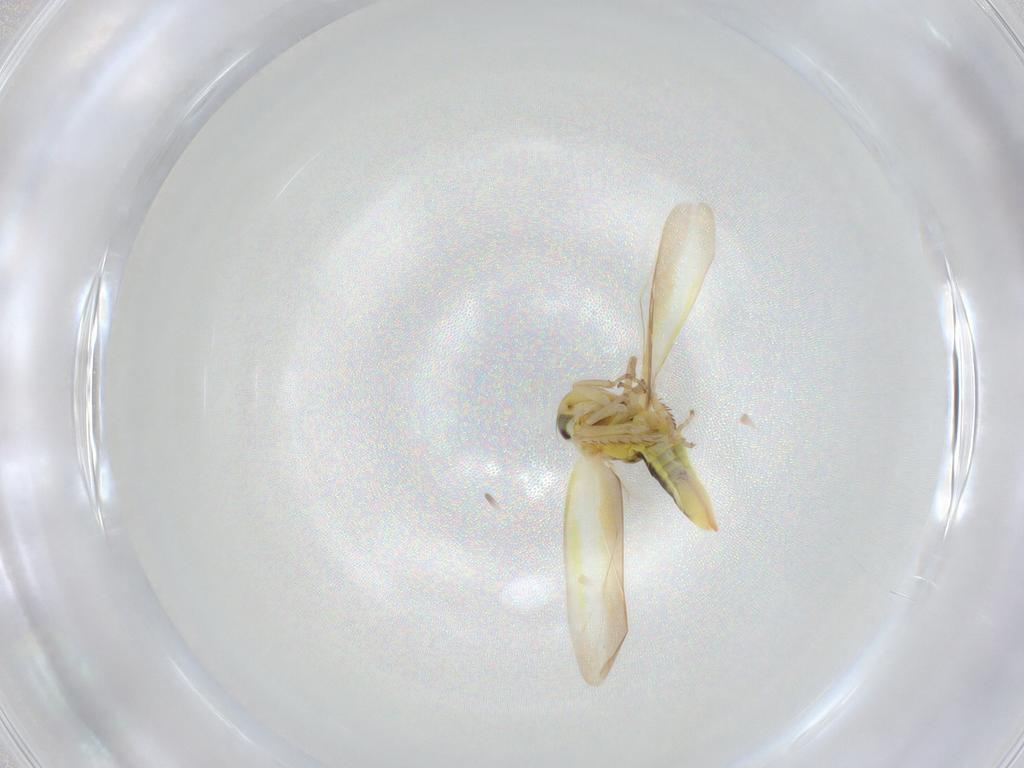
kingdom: Animalia
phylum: Arthropoda
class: Insecta
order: Hemiptera
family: Cicadellidae
